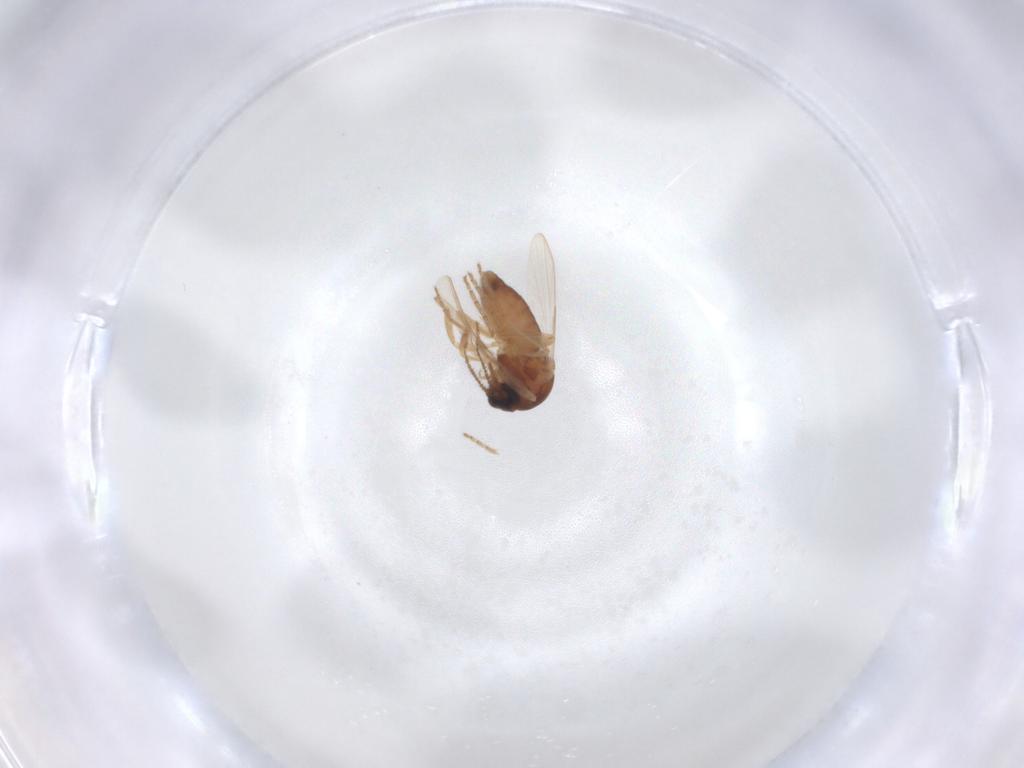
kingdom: Animalia
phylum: Arthropoda
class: Insecta
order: Diptera
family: Ceratopogonidae
